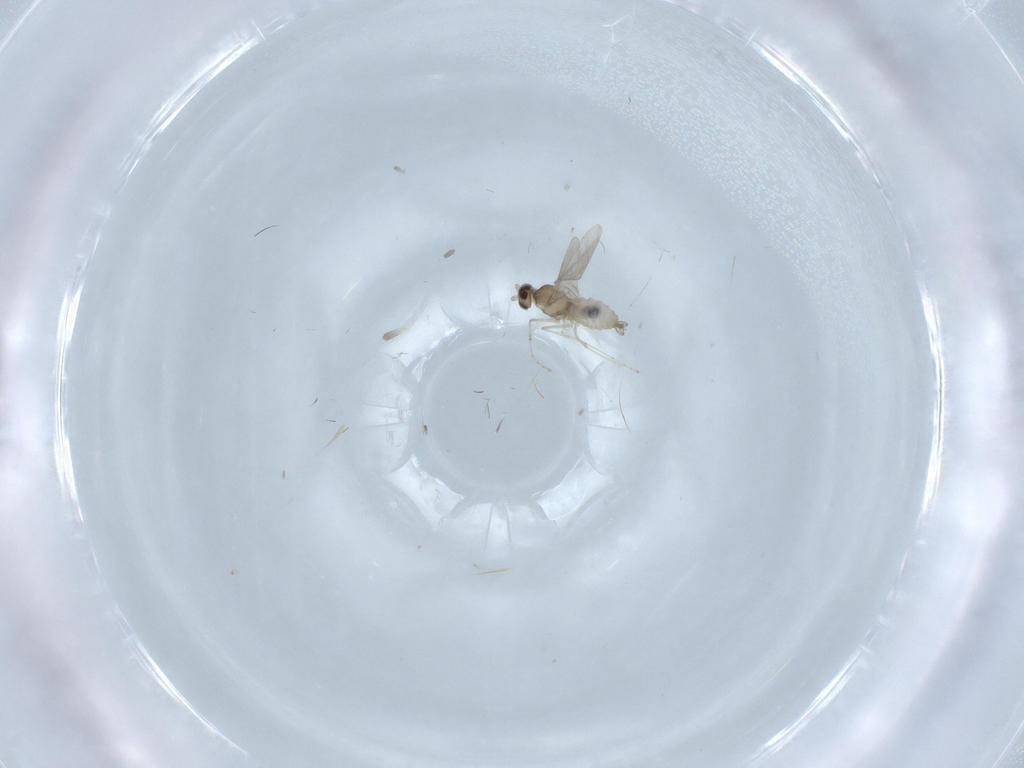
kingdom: Animalia
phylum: Arthropoda
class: Insecta
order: Diptera
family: Cecidomyiidae
